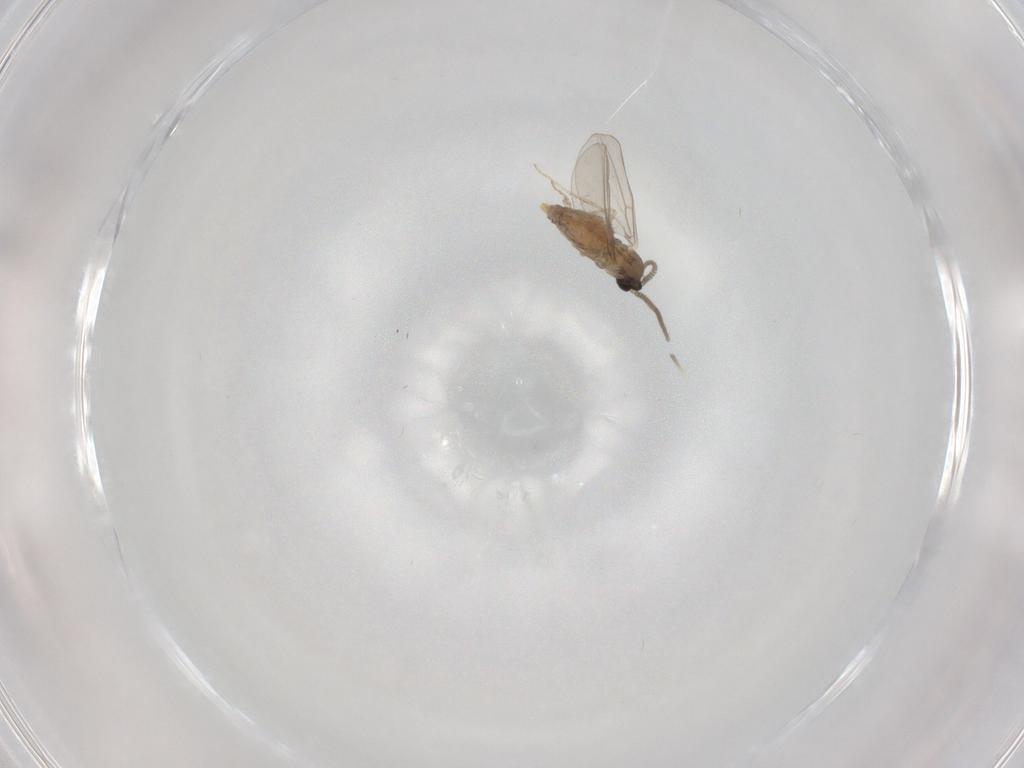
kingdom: Animalia
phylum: Arthropoda
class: Insecta
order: Diptera
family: Cecidomyiidae
